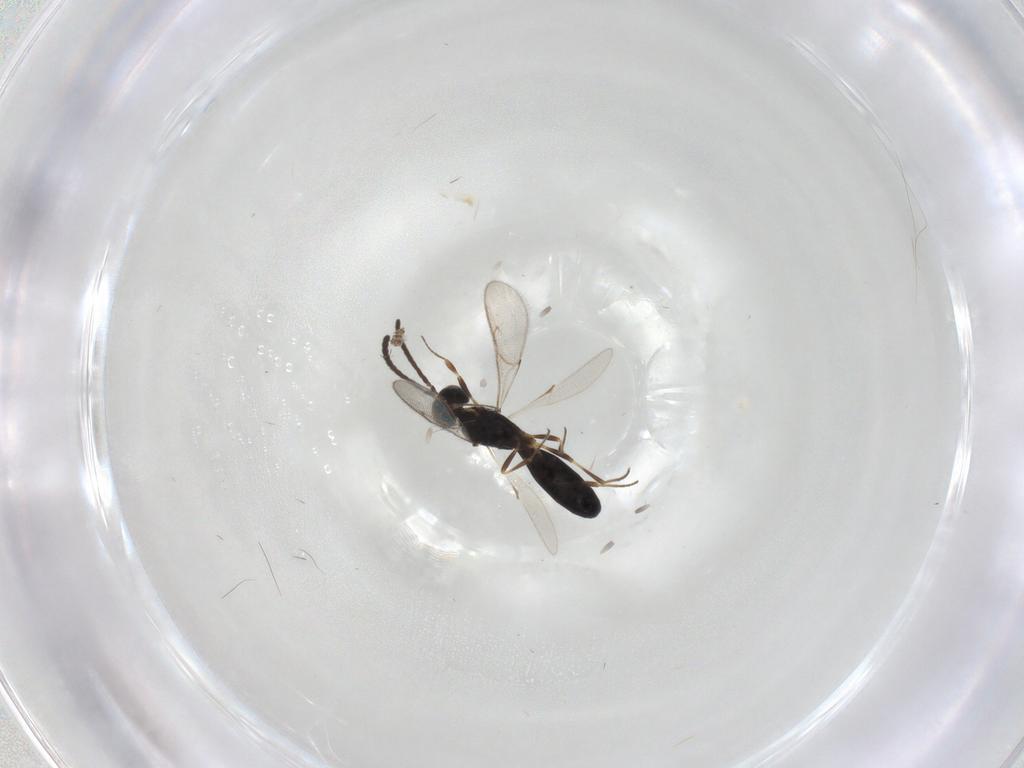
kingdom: Animalia
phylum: Arthropoda
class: Insecta
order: Hymenoptera
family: Scelionidae
